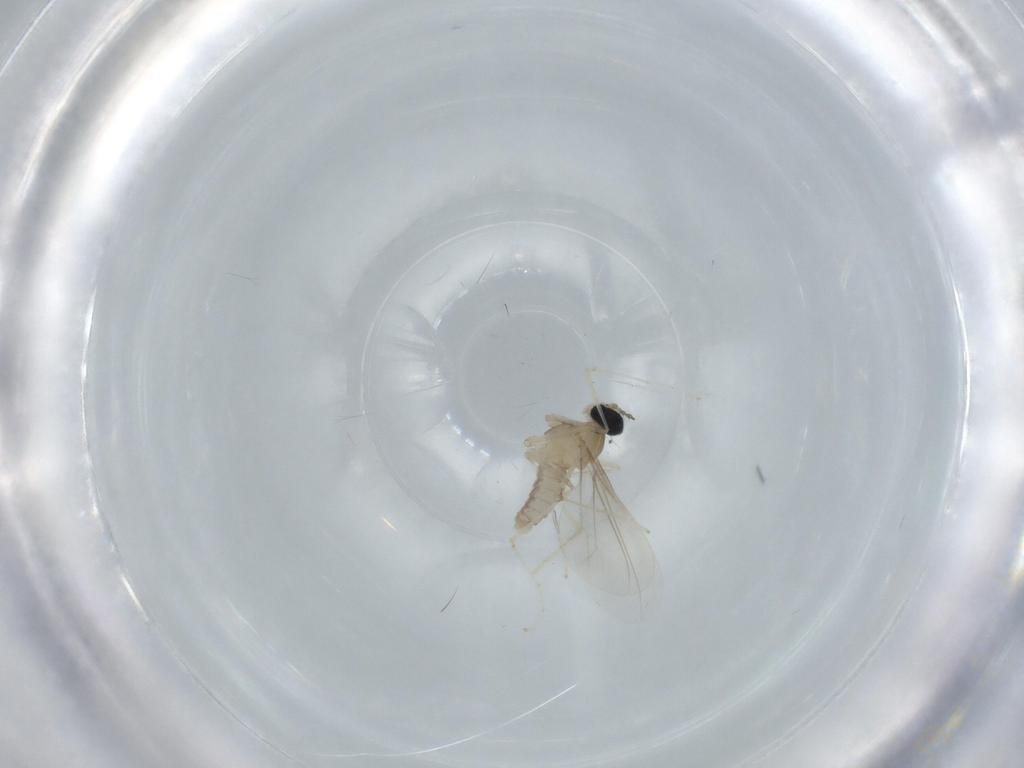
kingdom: Animalia
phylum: Arthropoda
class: Insecta
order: Diptera
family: Cecidomyiidae
